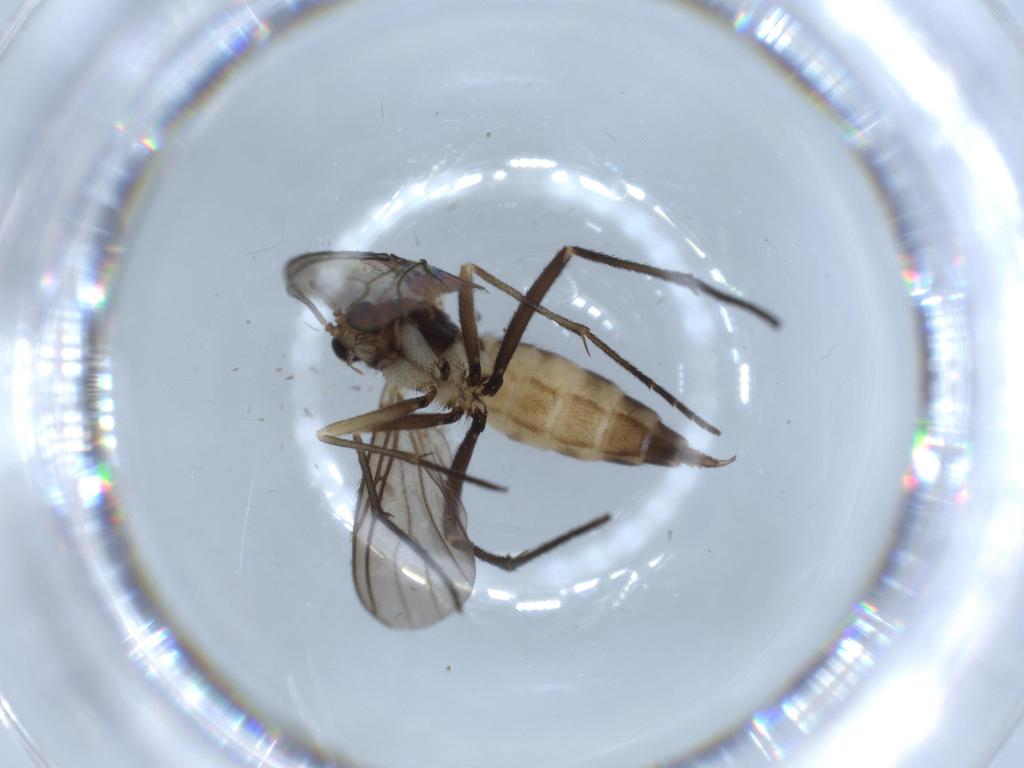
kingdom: Animalia
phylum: Arthropoda
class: Insecta
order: Diptera
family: Sciaridae
